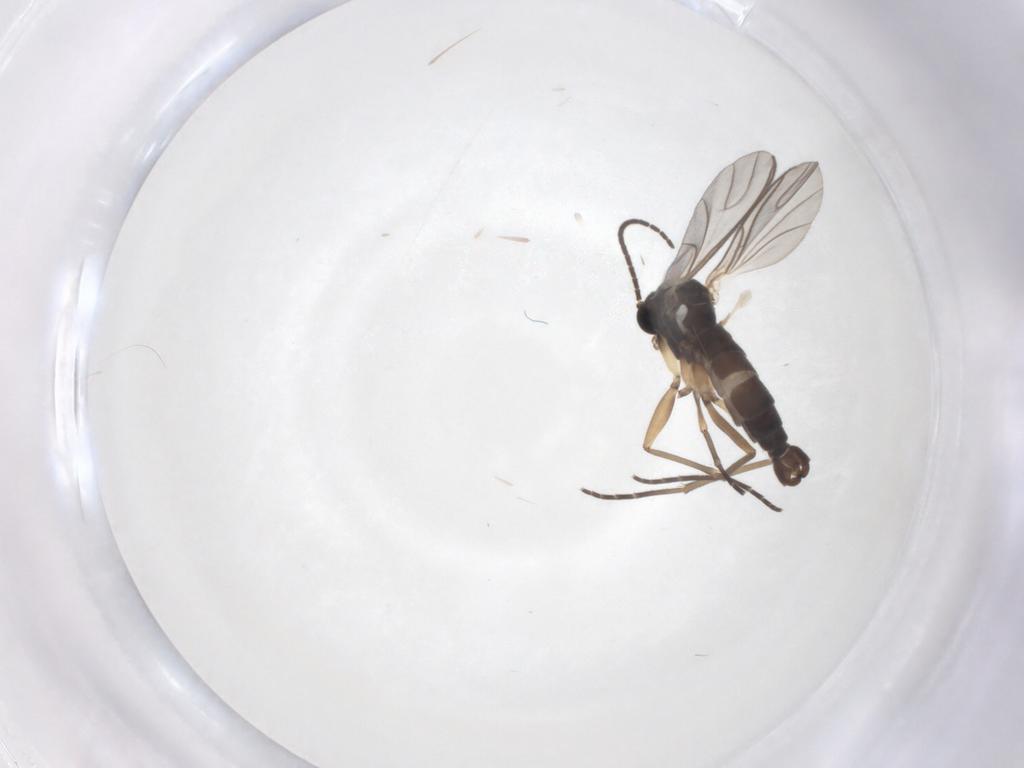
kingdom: Animalia
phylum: Arthropoda
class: Insecta
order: Diptera
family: Sciaridae
